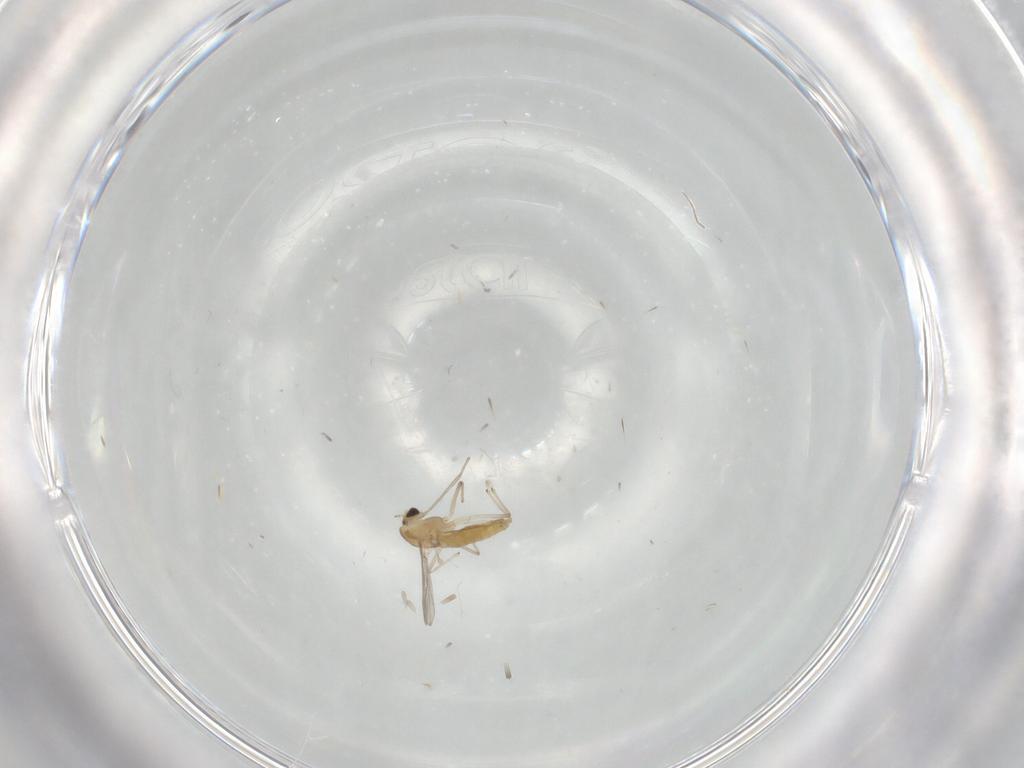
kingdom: Animalia
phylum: Arthropoda
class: Insecta
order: Diptera
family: Chironomidae
